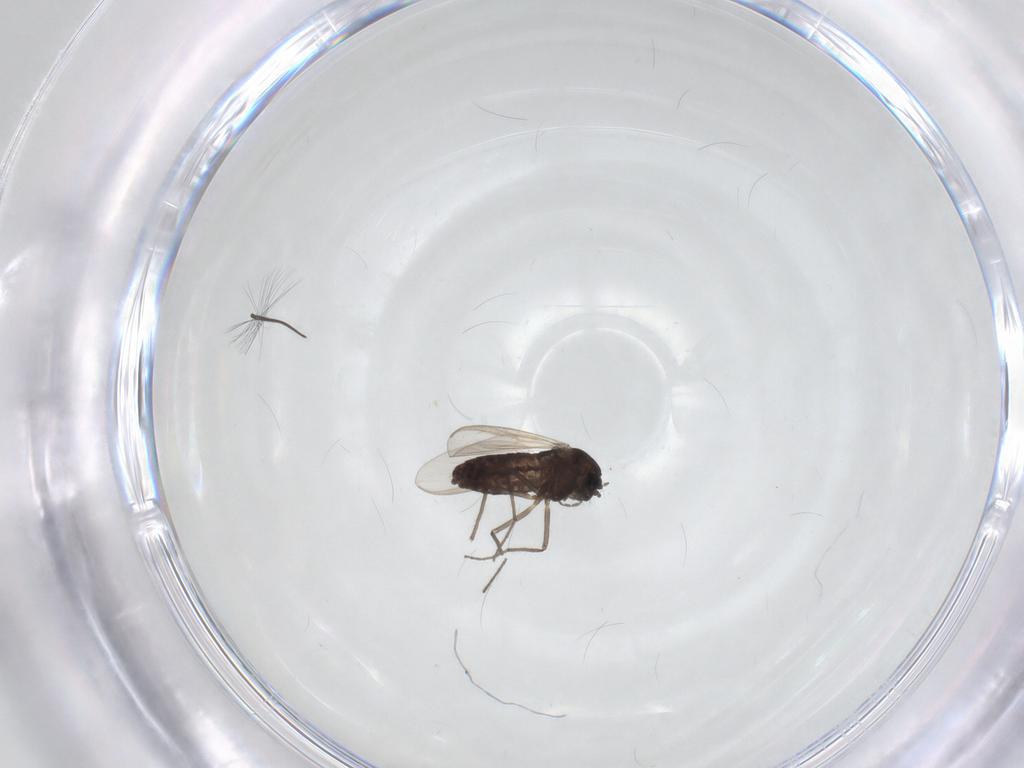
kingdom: Animalia
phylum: Arthropoda
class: Insecta
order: Diptera
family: Chironomidae
